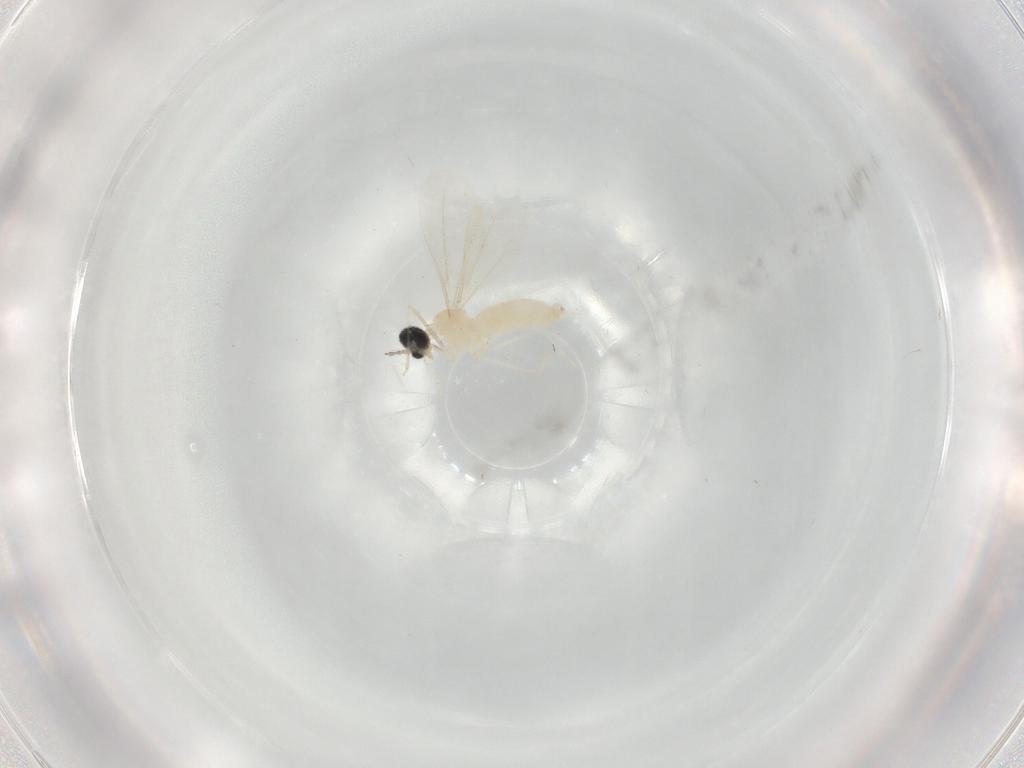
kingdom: Animalia
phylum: Arthropoda
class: Insecta
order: Diptera
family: Cecidomyiidae
